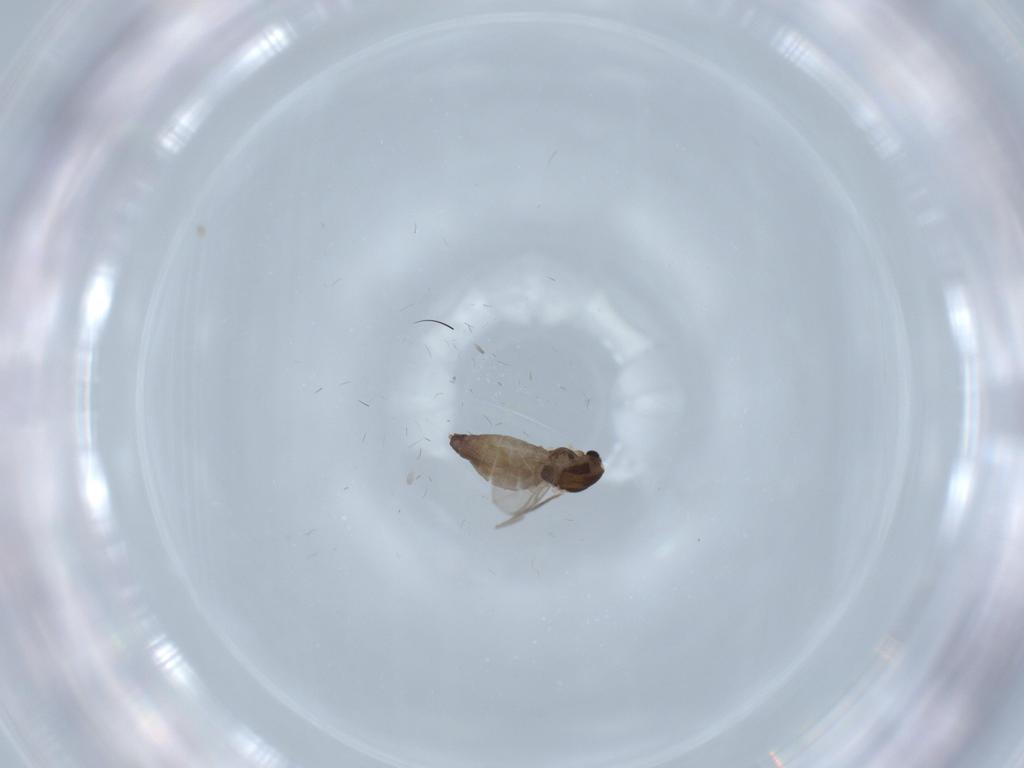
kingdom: Animalia
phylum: Arthropoda
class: Insecta
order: Diptera
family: Chironomidae
